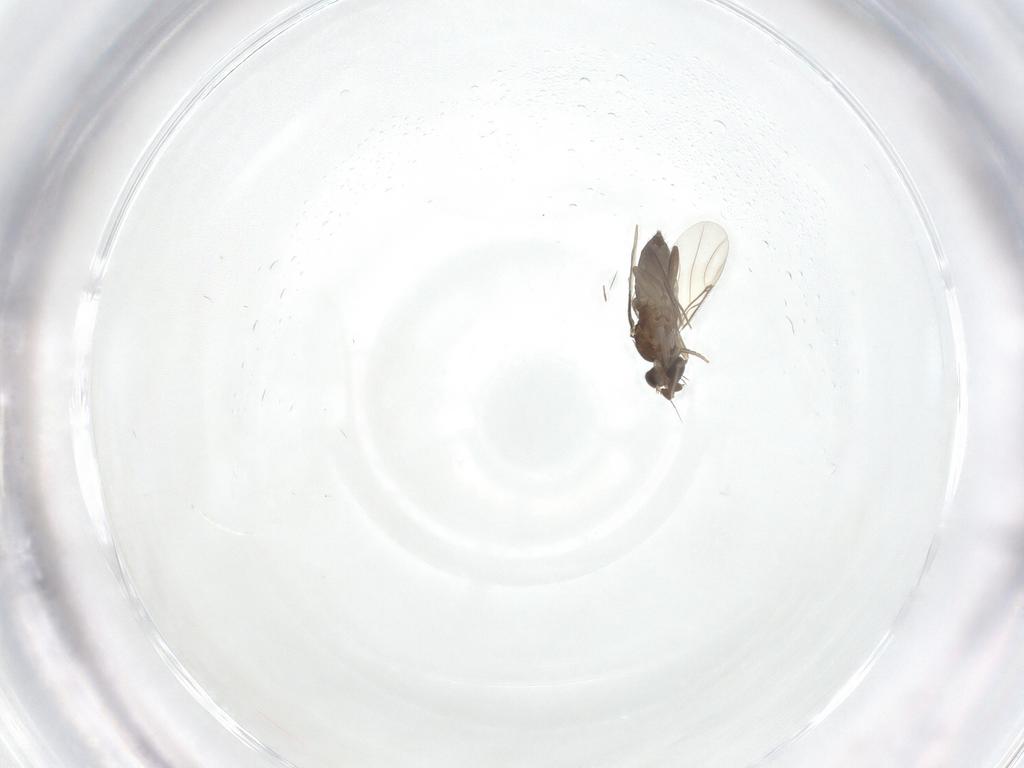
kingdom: Animalia
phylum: Arthropoda
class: Insecta
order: Diptera
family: Phoridae
